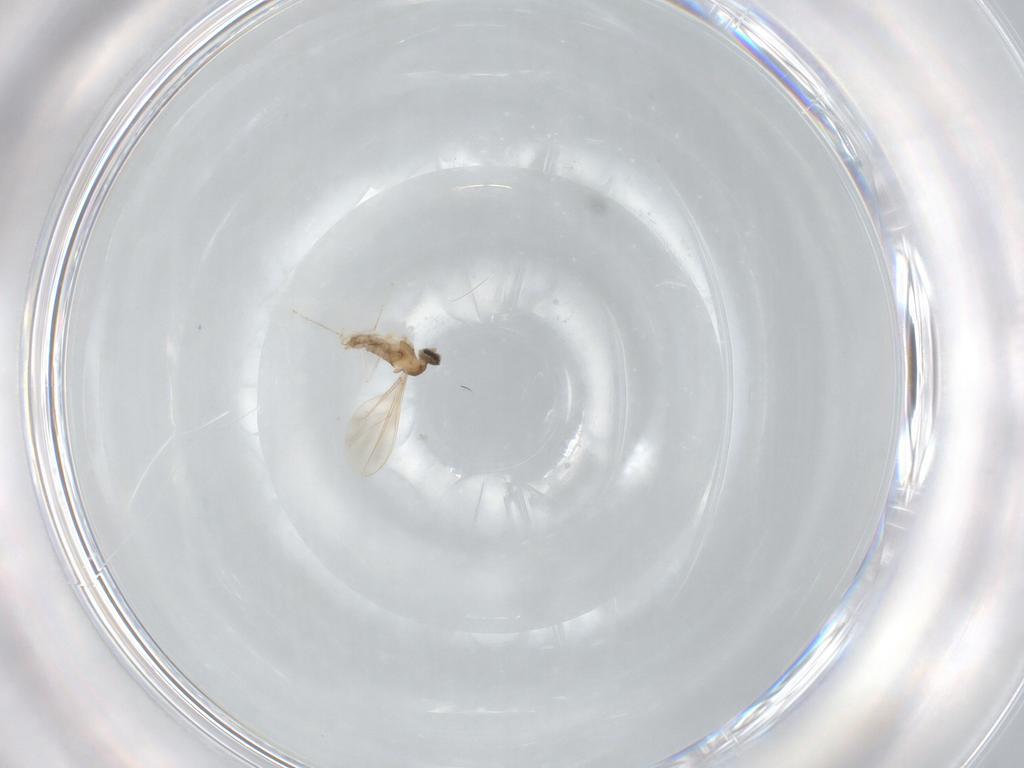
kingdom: Animalia
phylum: Arthropoda
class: Insecta
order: Diptera
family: Cecidomyiidae
